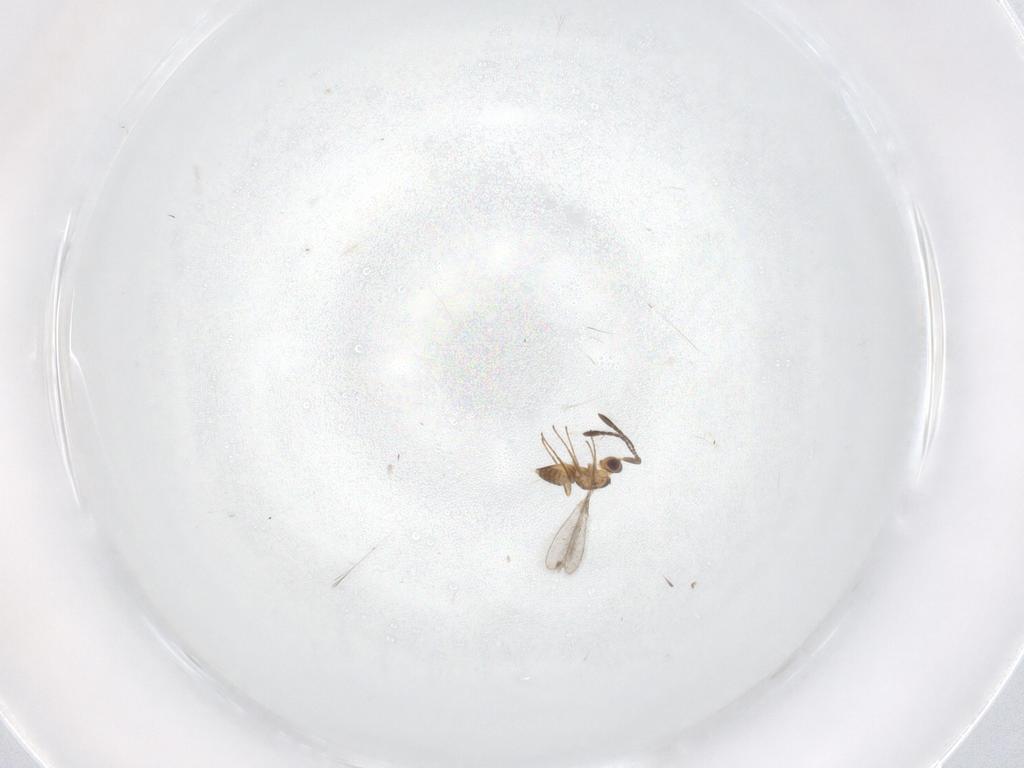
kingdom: Animalia
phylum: Arthropoda
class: Insecta
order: Hymenoptera
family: Mymaridae
